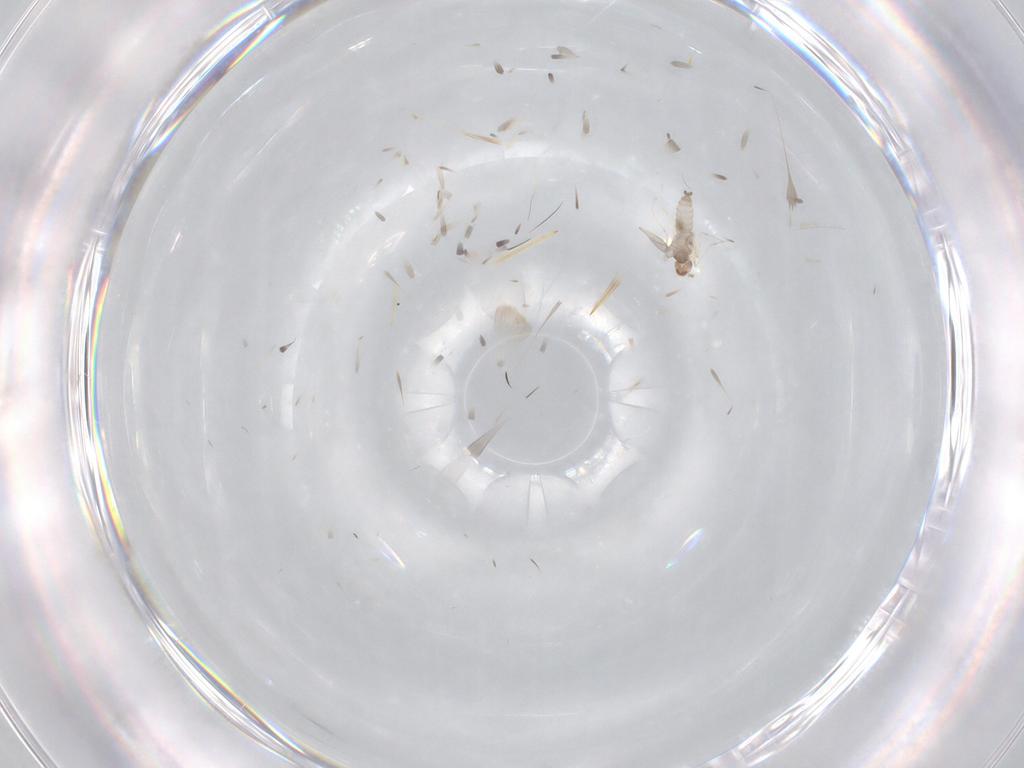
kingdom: Animalia
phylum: Arthropoda
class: Insecta
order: Diptera
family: Cecidomyiidae
